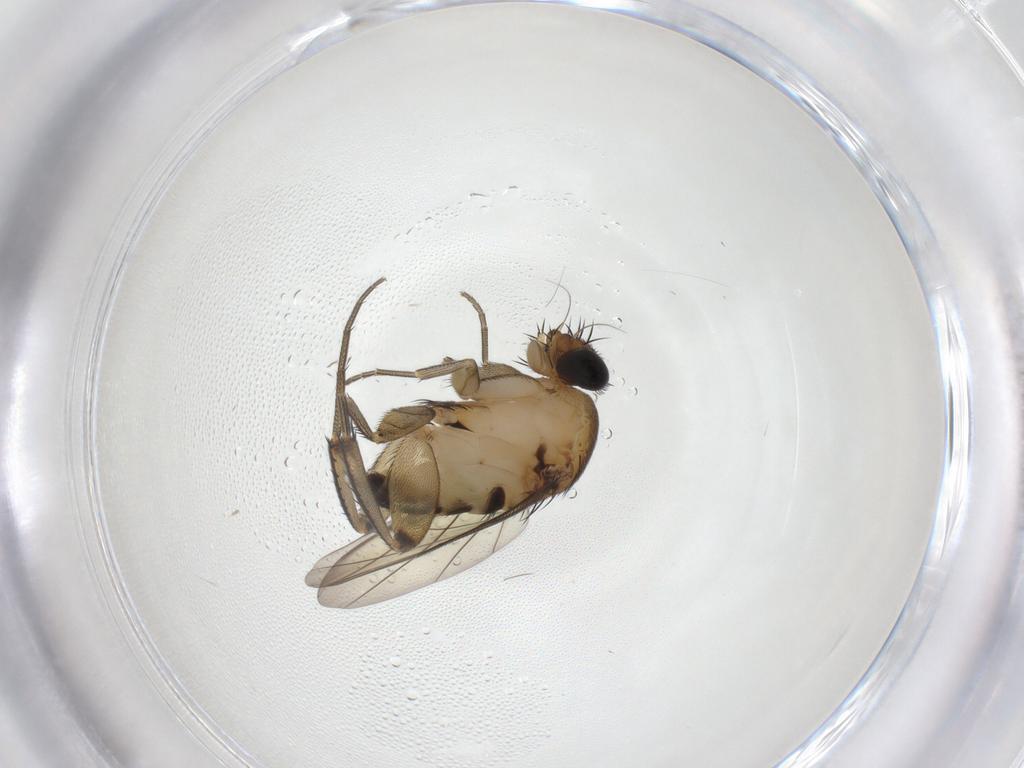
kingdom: Animalia
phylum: Arthropoda
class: Insecta
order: Diptera
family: Phoridae
